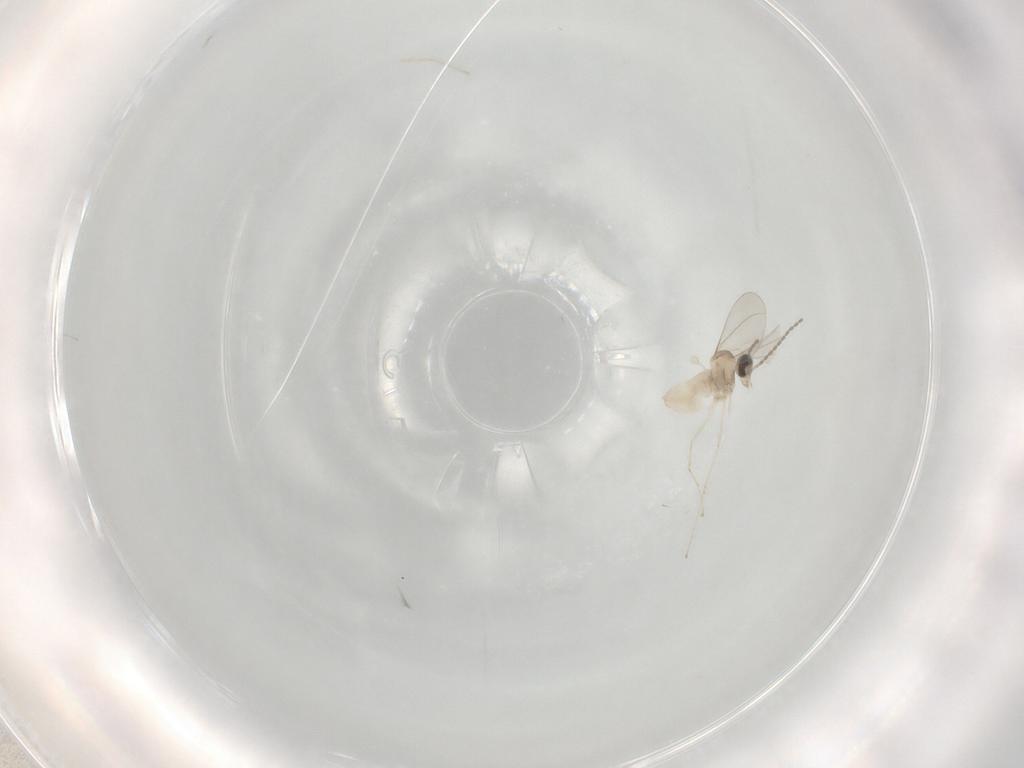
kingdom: Animalia
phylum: Arthropoda
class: Insecta
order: Diptera
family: Cecidomyiidae
